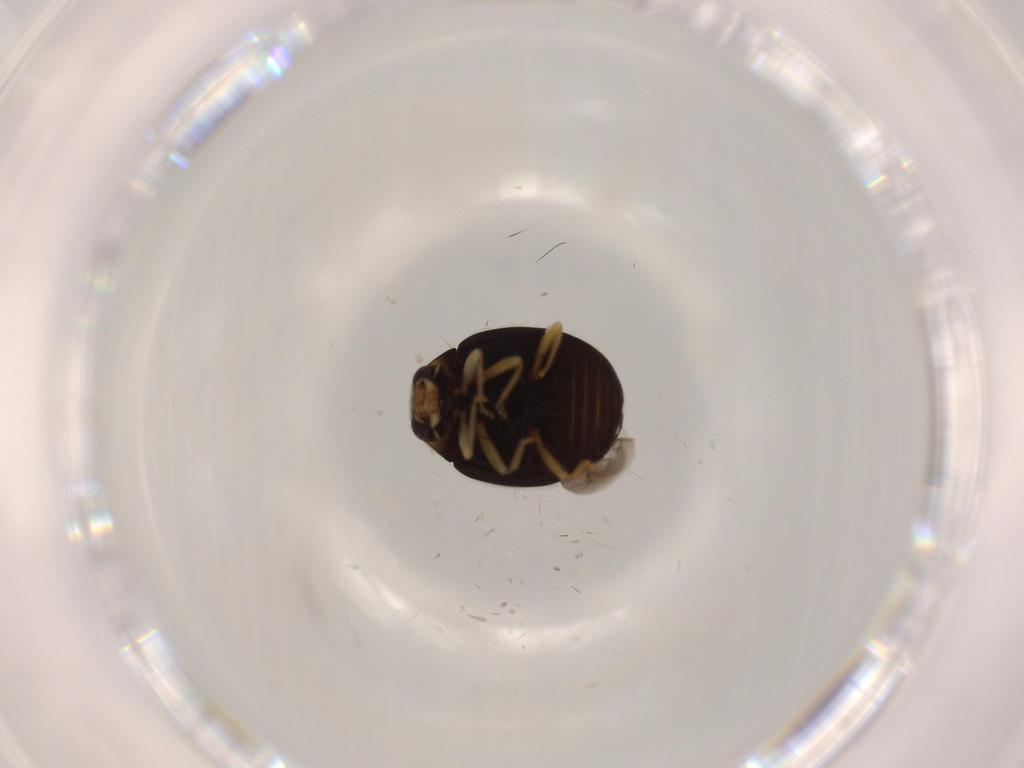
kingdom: Animalia
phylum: Arthropoda
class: Insecta
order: Coleoptera
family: Coccinellidae
